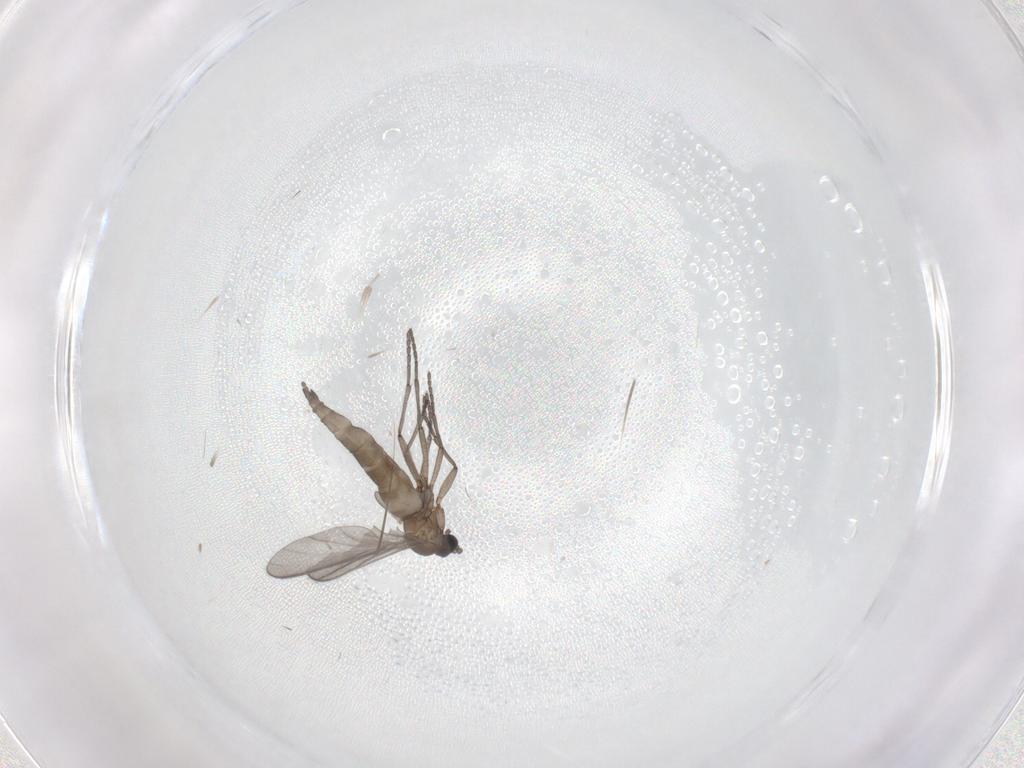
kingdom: Animalia
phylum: Arthropoda
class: Insecta
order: Diptera
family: Sciaridae
